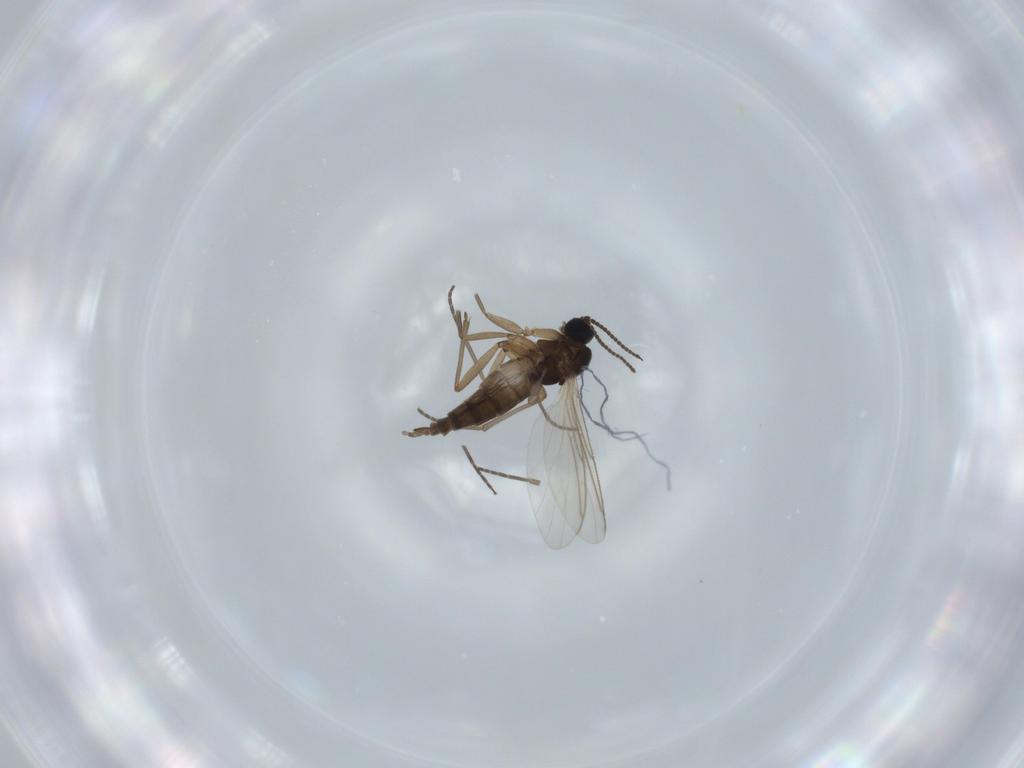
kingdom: Animalia
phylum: Arthropoda
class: Insecta
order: Diptera
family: Sciaridae
